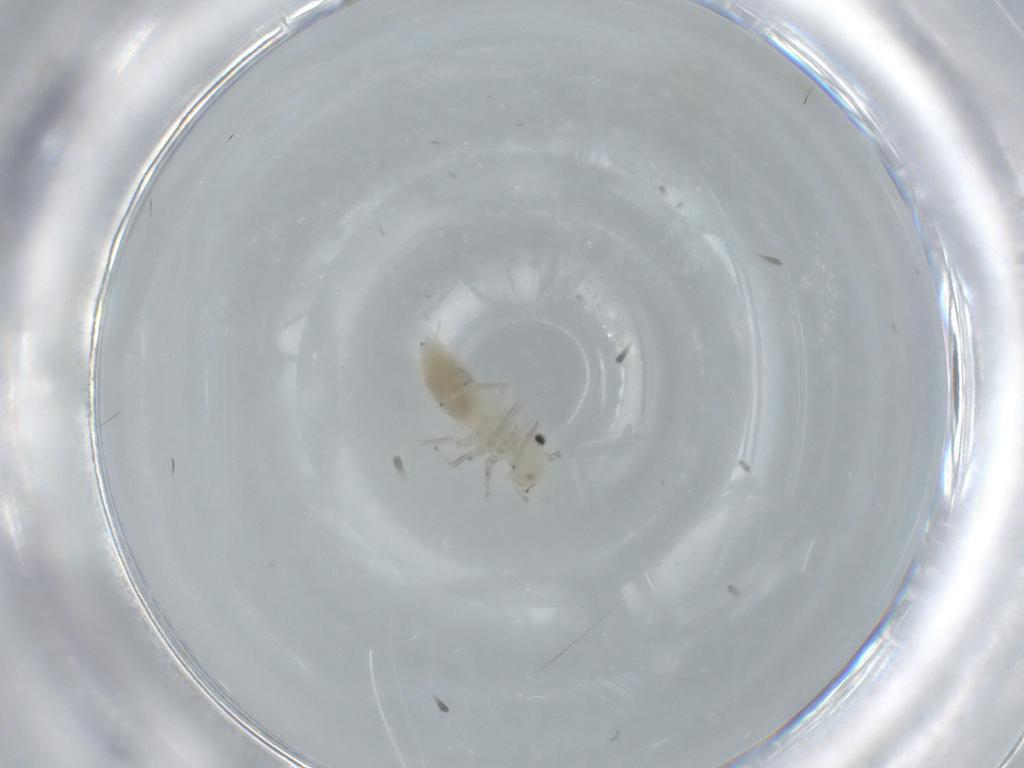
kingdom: Animalia
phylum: Arthropoda
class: Insecta
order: Psocodea
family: Caeciliusidae
